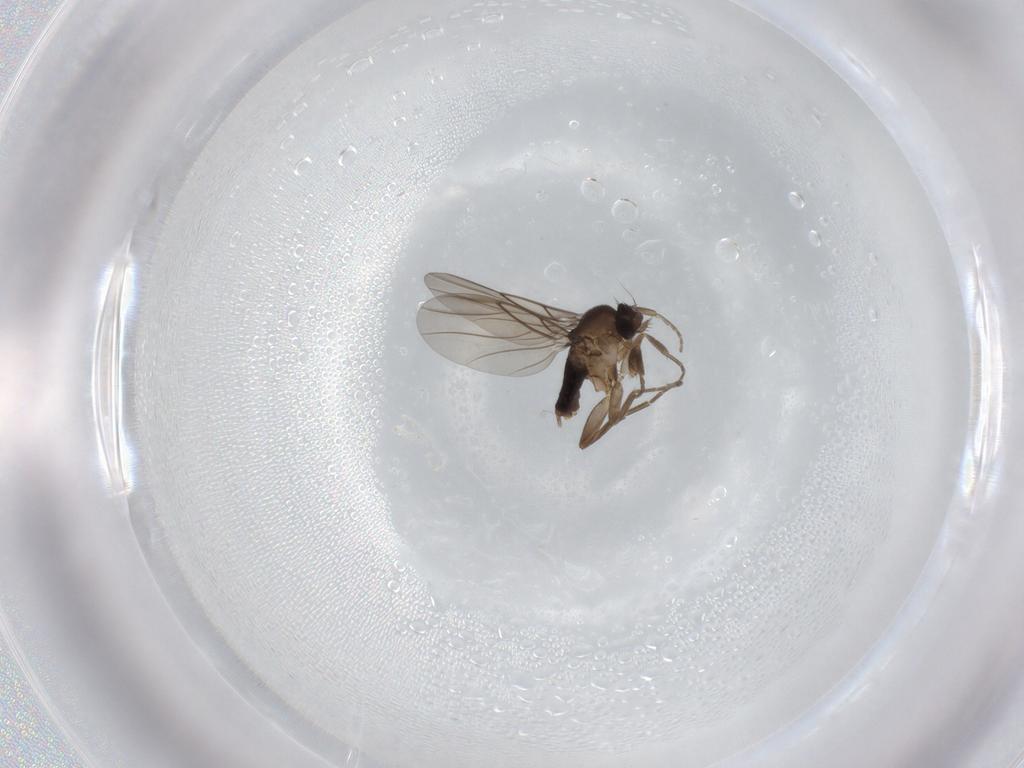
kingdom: Animalia
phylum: Arthropoda
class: Insecta
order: Diptera
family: Phoridae
